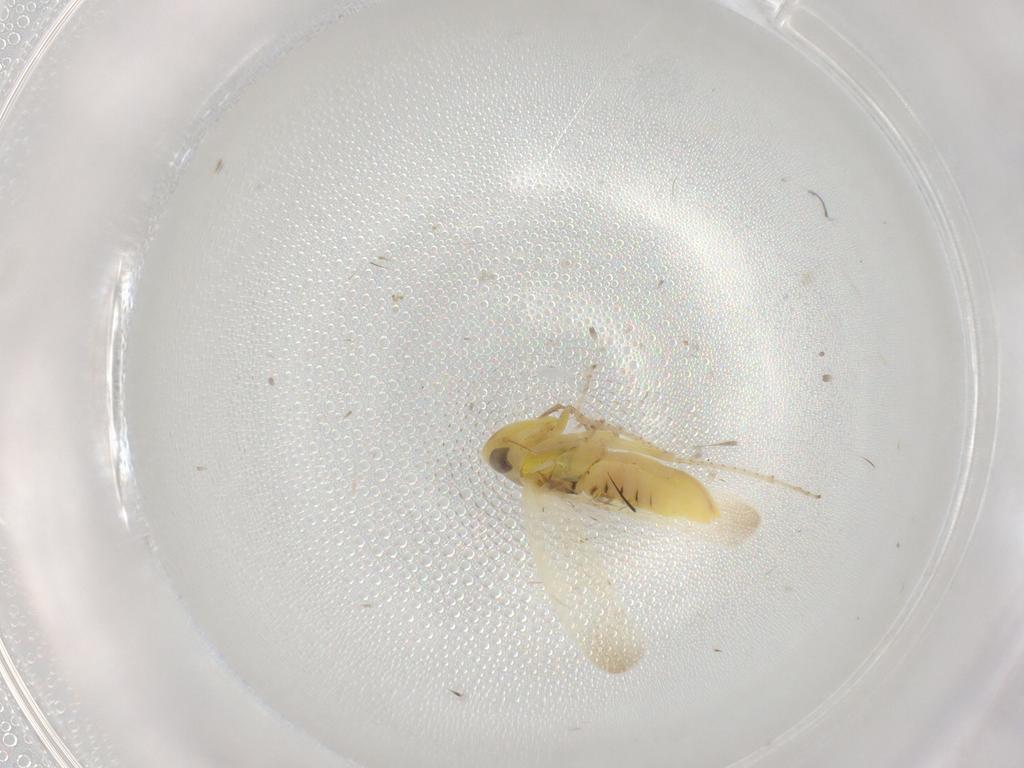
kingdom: Animalia
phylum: Arthropoda
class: Insecta
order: Hemiptera
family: Cicadellidae
